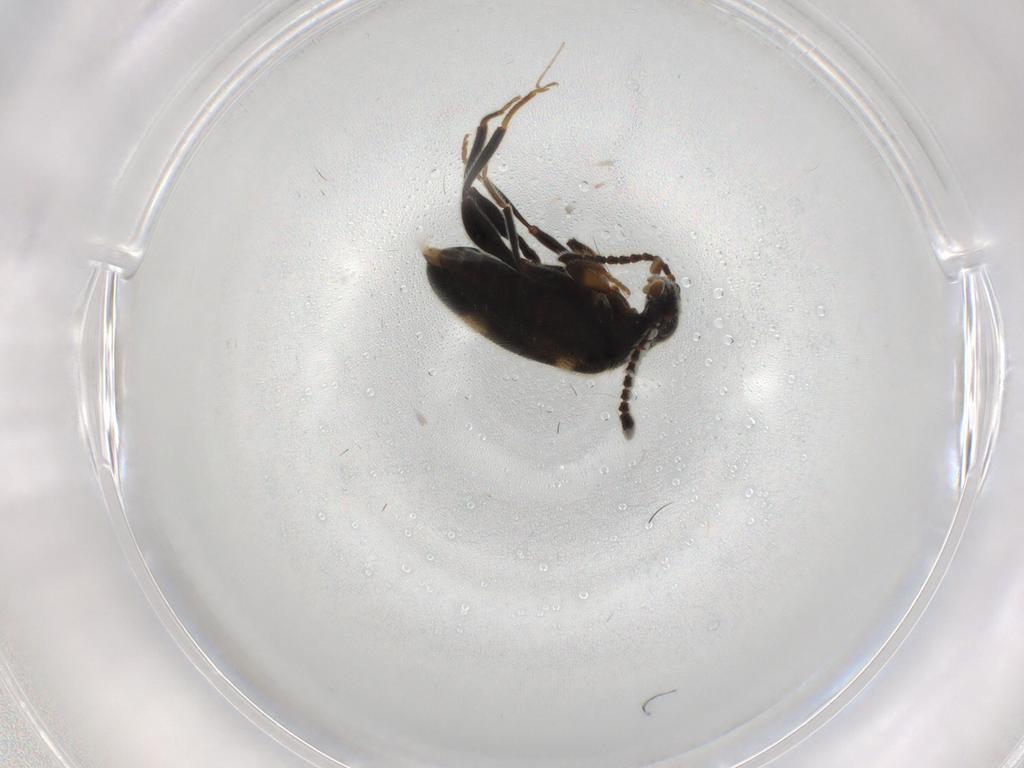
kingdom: Animalia
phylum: Arthropoda
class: Insecta
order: Coleoptera
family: Aderidae
